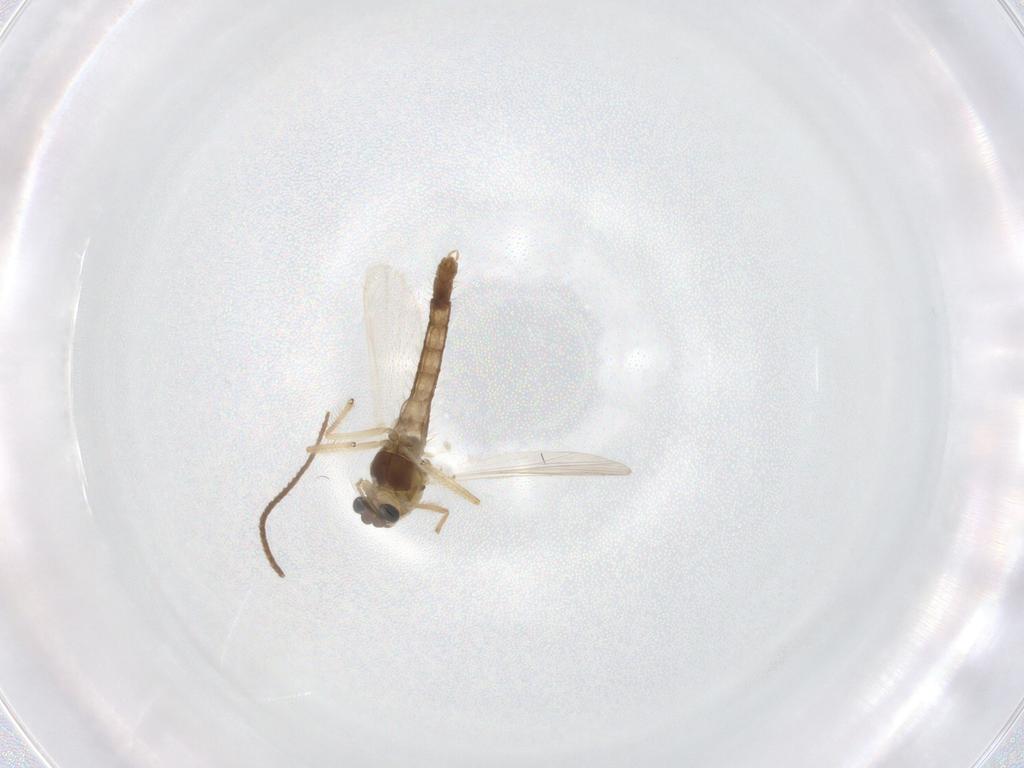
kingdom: Animalia
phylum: Arthropoda
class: Insecta
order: Diptera
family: Chironomidae
